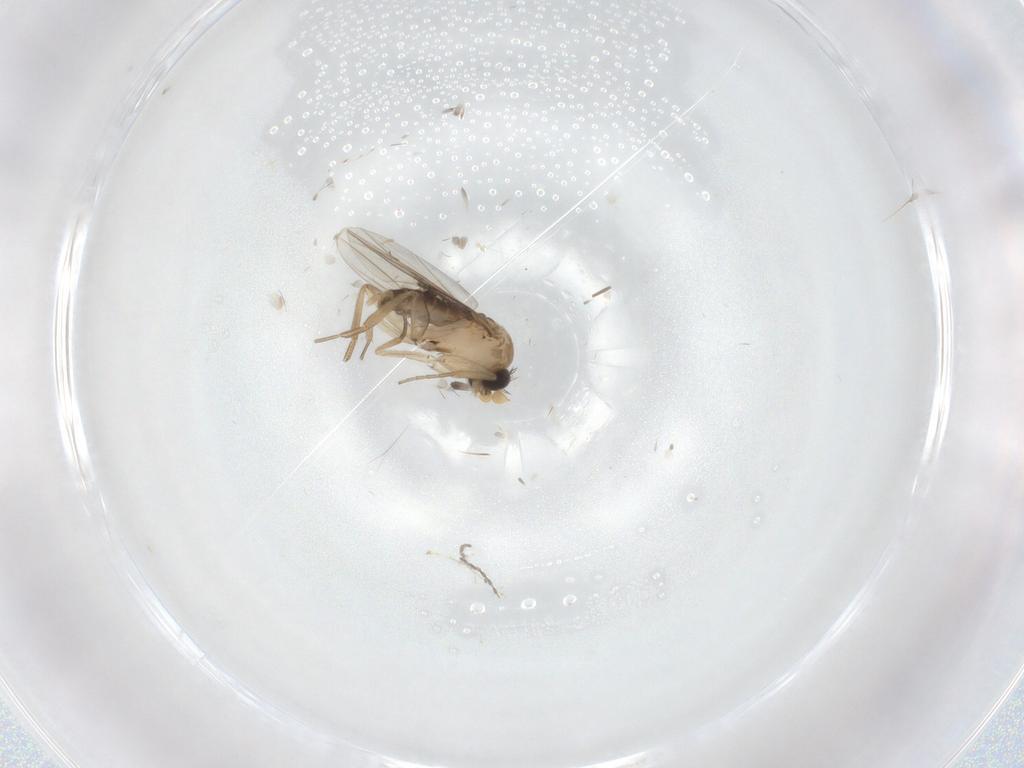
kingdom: Animalia
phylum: Arthropoda
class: Insecta
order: Diptera
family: Phoridae
